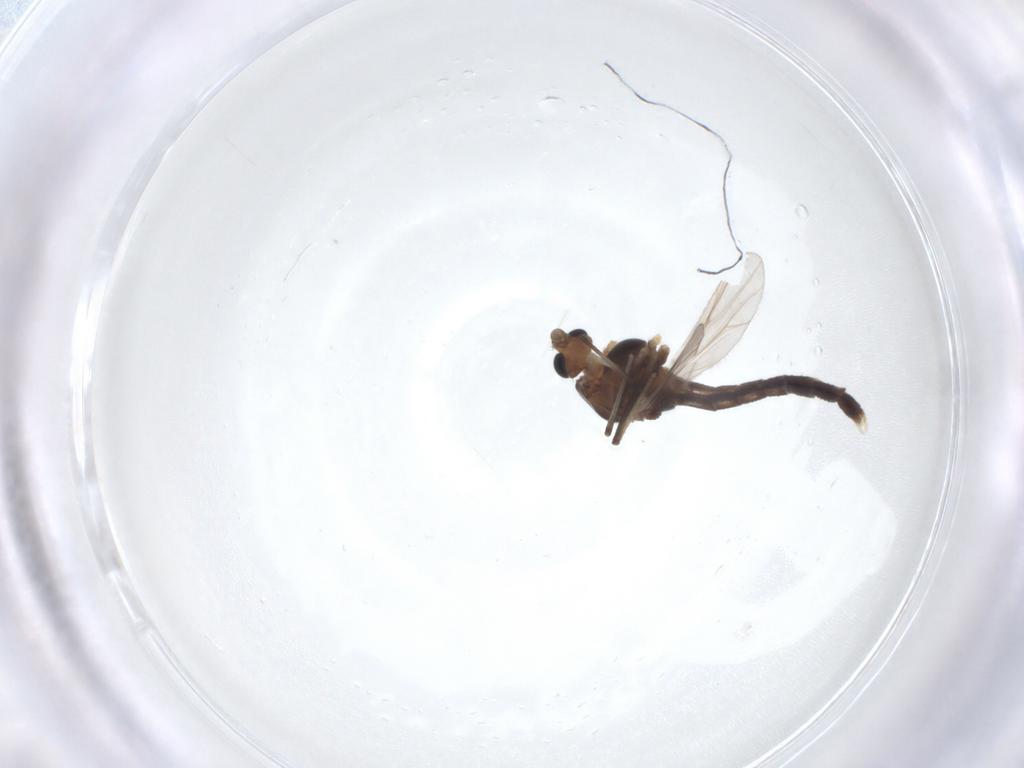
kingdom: Animalia
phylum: Arthropoda
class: Insecta
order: Diptera
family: Chironomidae
